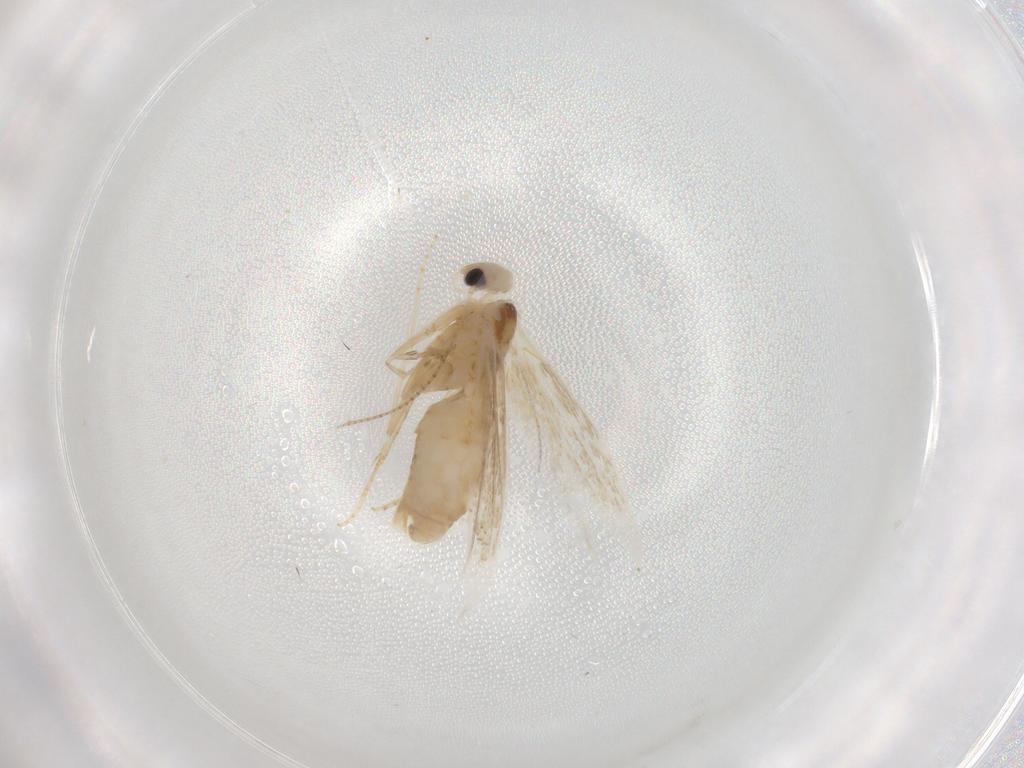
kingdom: Animalia
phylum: Arthropoda
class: Insecta
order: Lepidoptera
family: Bucculatricidae
